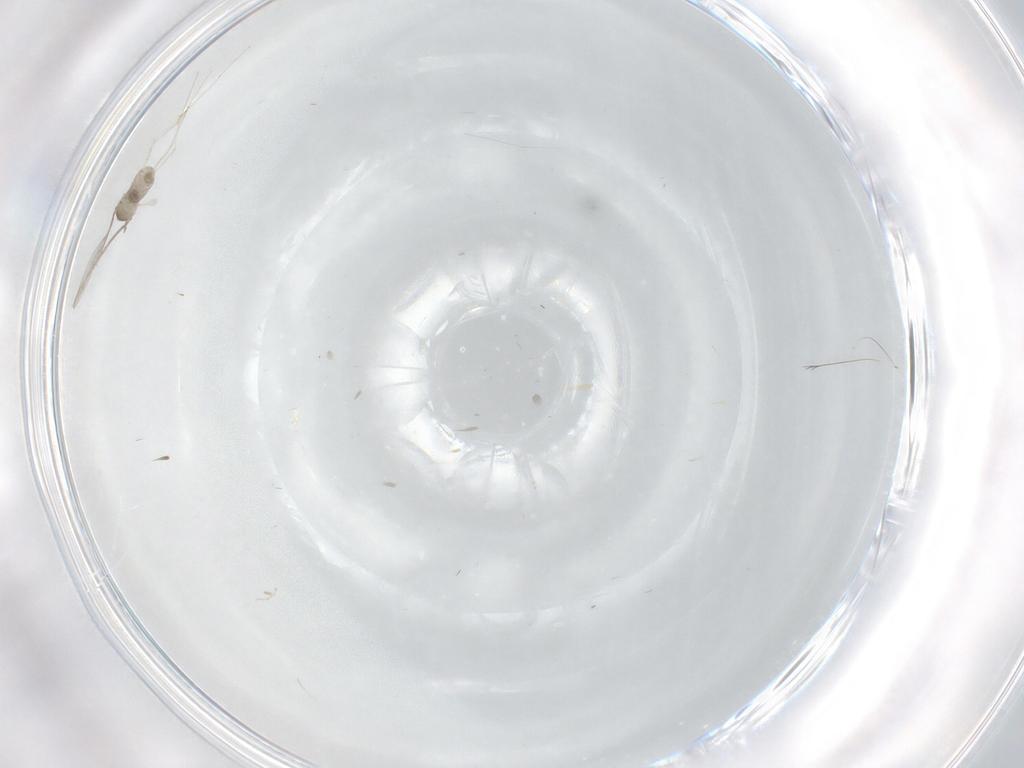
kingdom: Animalia
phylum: Arthropoda
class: Insecta
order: Diptera
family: Cecidomyiidae
